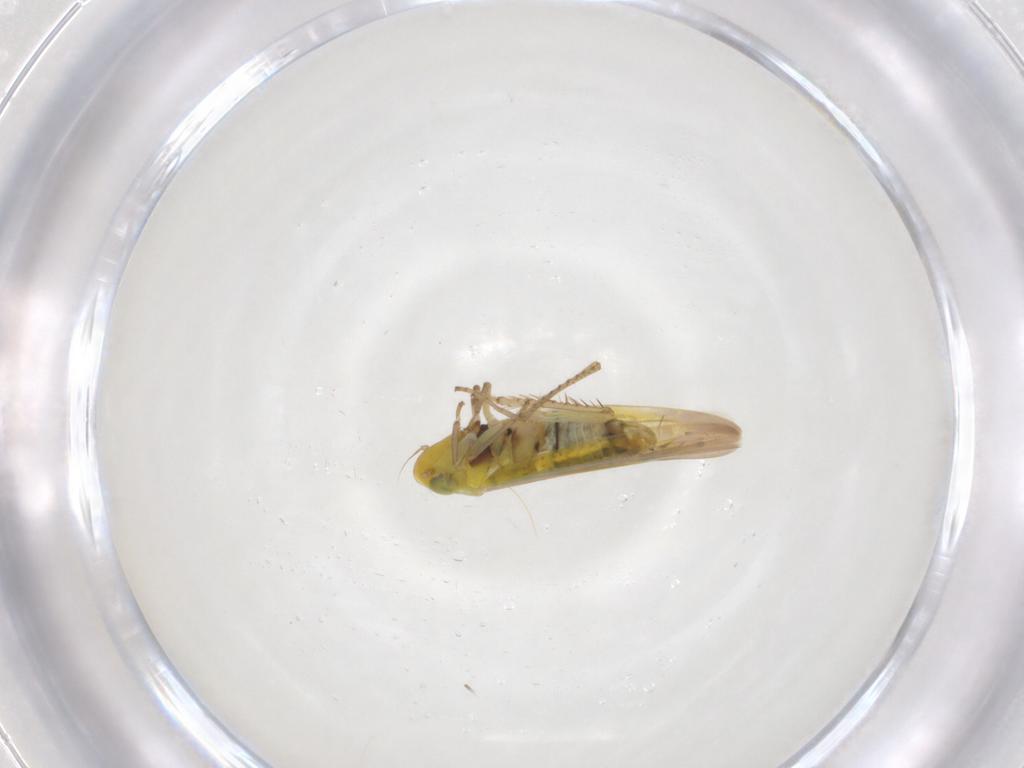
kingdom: Animalia
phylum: Arthropoda
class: Insecta
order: Hemiptera
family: Cicadellidae
